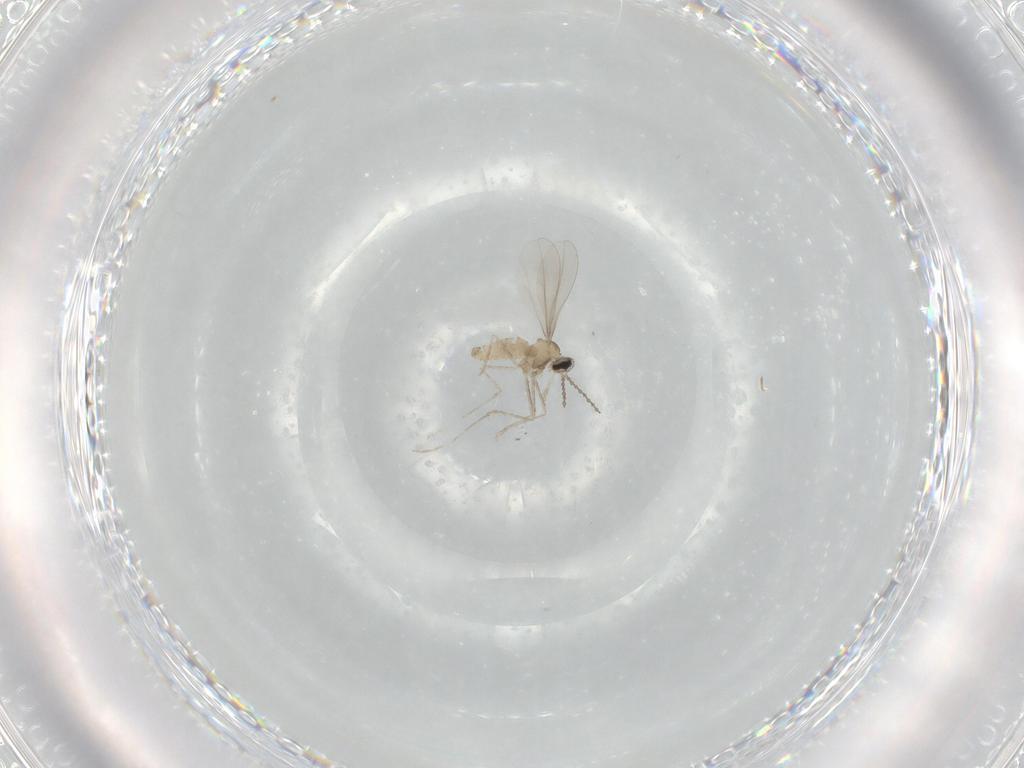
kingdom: Animalia
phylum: Arthropoda
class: Insecta
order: Diptera
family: Cecidomyiidae
